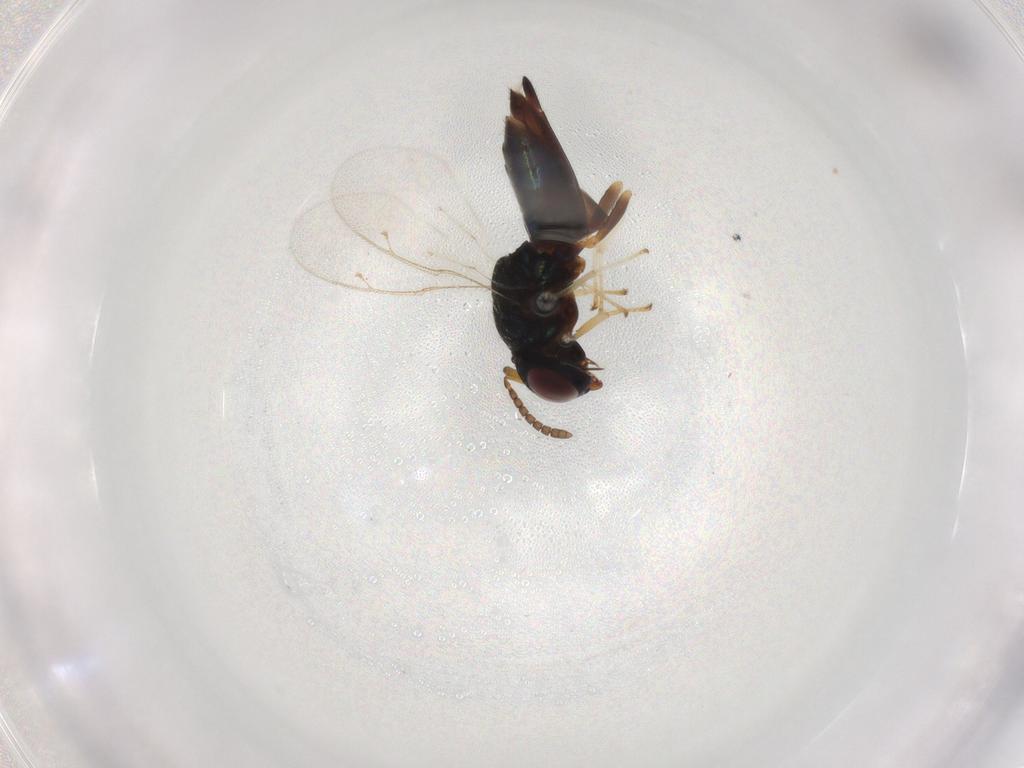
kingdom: Animalia
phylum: Arthropoda
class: Insecta
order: Hymenoptera
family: Pteromalidae
